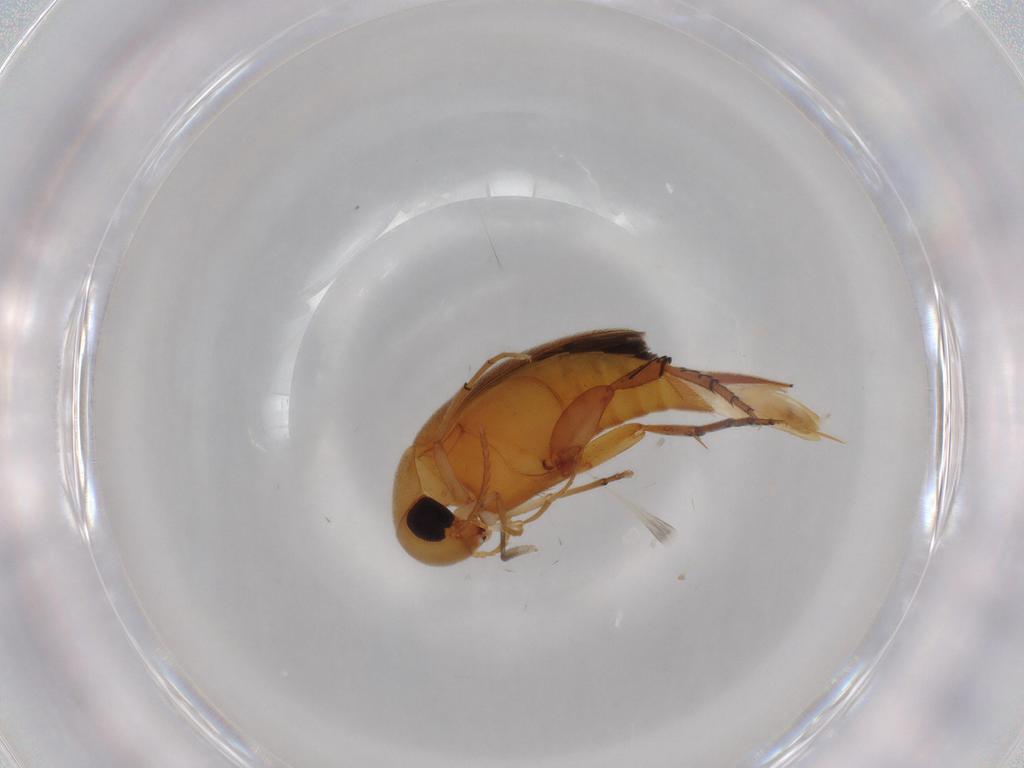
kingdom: Animalia
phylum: Arthropoda
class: Insecta
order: Coleoptera
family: Mordellidae
